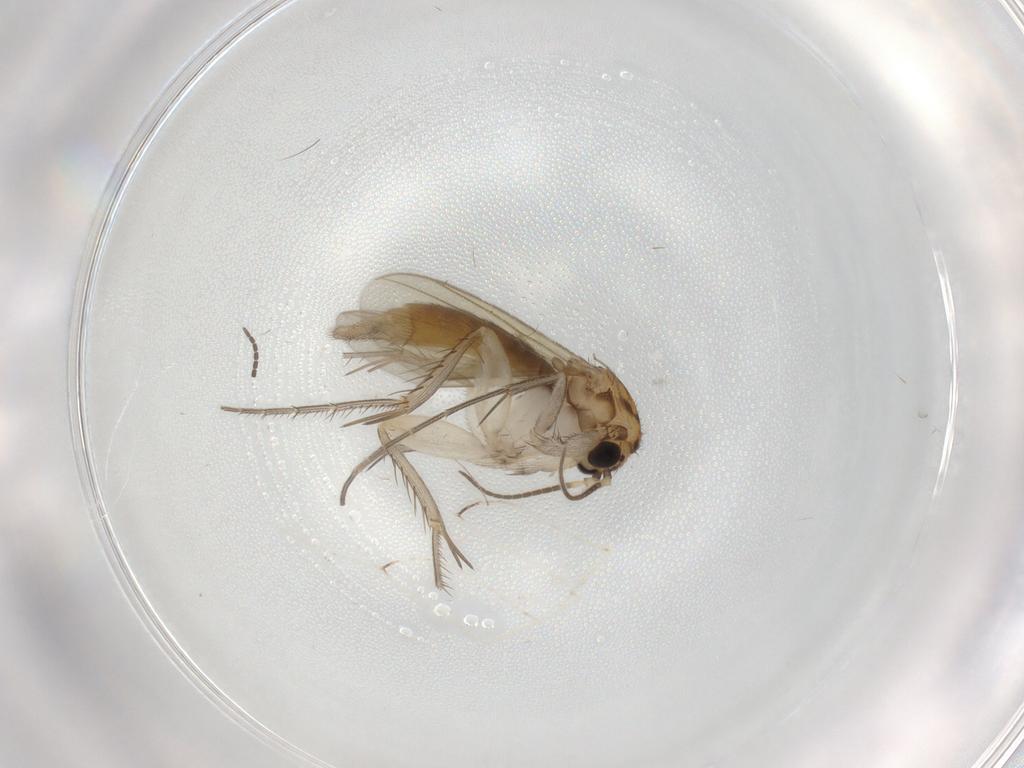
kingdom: Animalia
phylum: Arthropoda
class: Insecta
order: Diptera
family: Mycetophilidae
